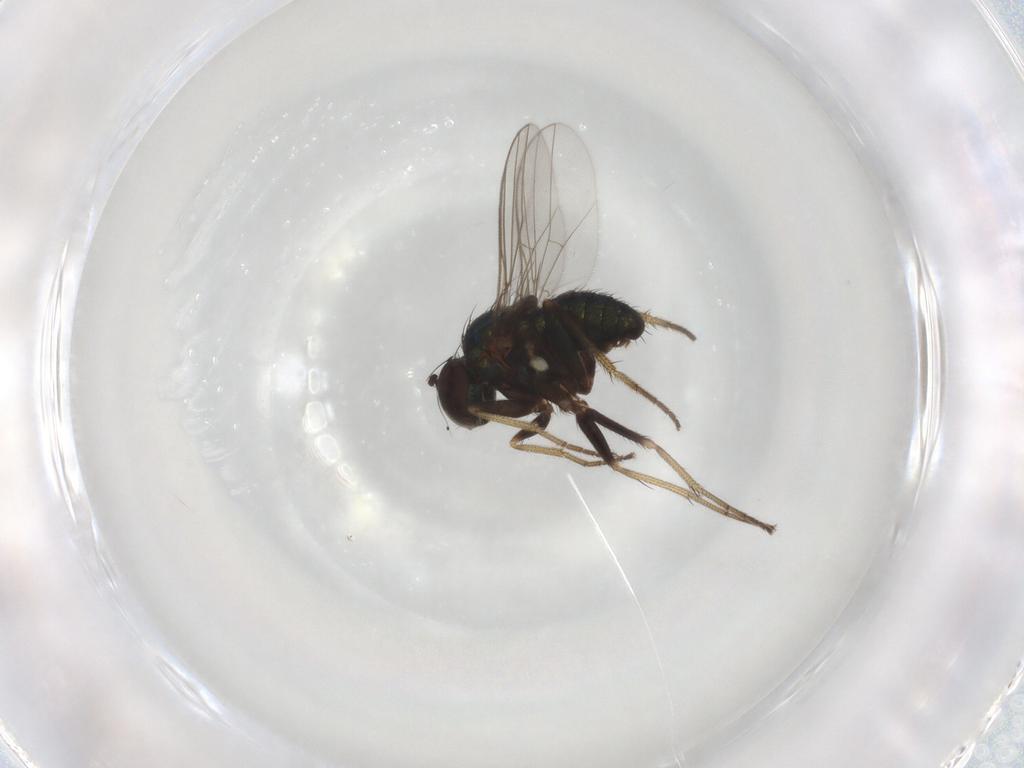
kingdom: Animalia
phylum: Arthropoda
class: Insecta
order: Diptera
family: Dolichopodidae
